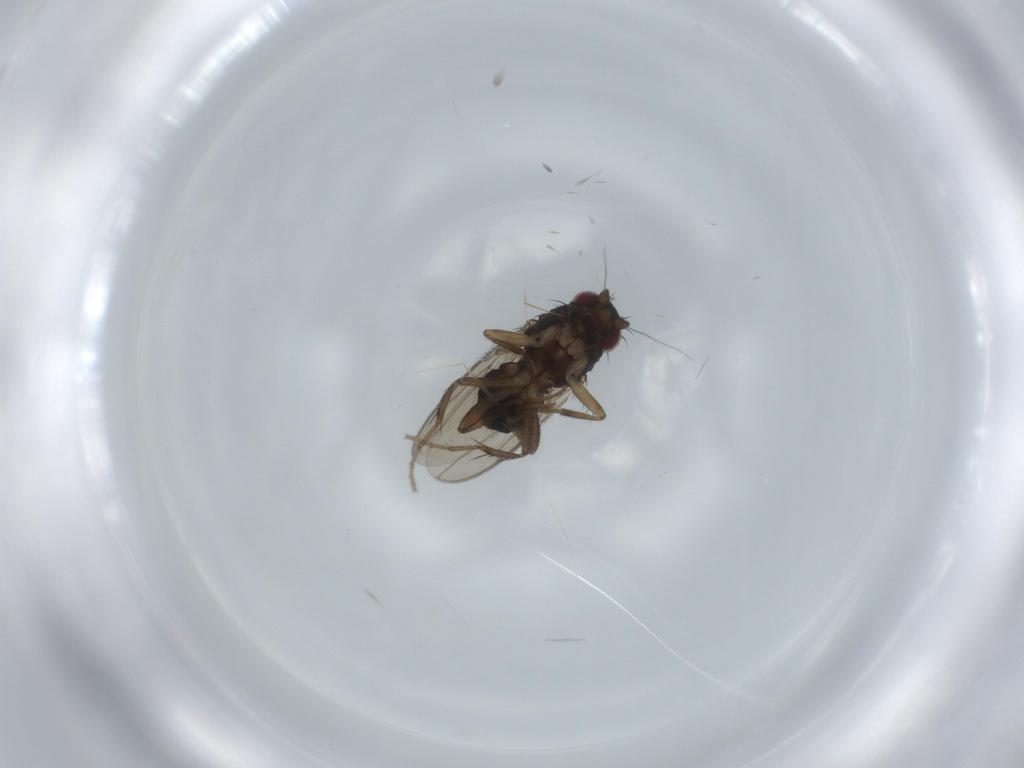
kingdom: Animalia
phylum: Arthropoda
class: Insecta
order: Diptera
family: Sphaeroceridae
